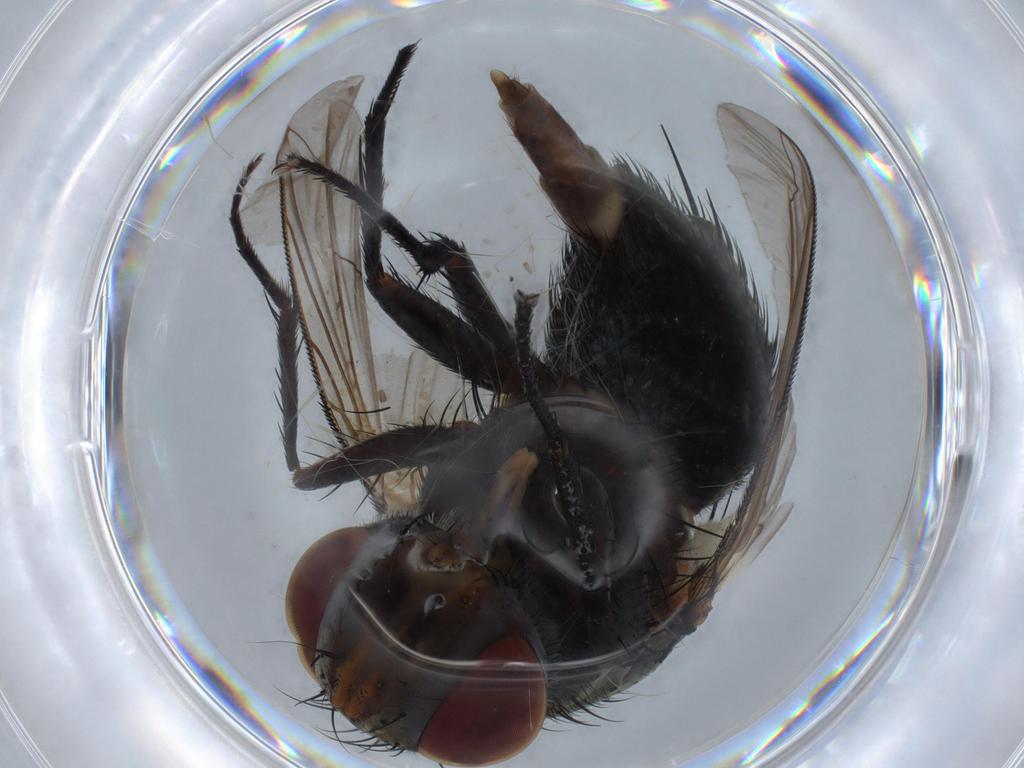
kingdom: Animalia
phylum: Arthropoda
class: Insecta
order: Diptera
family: Tachinidae
